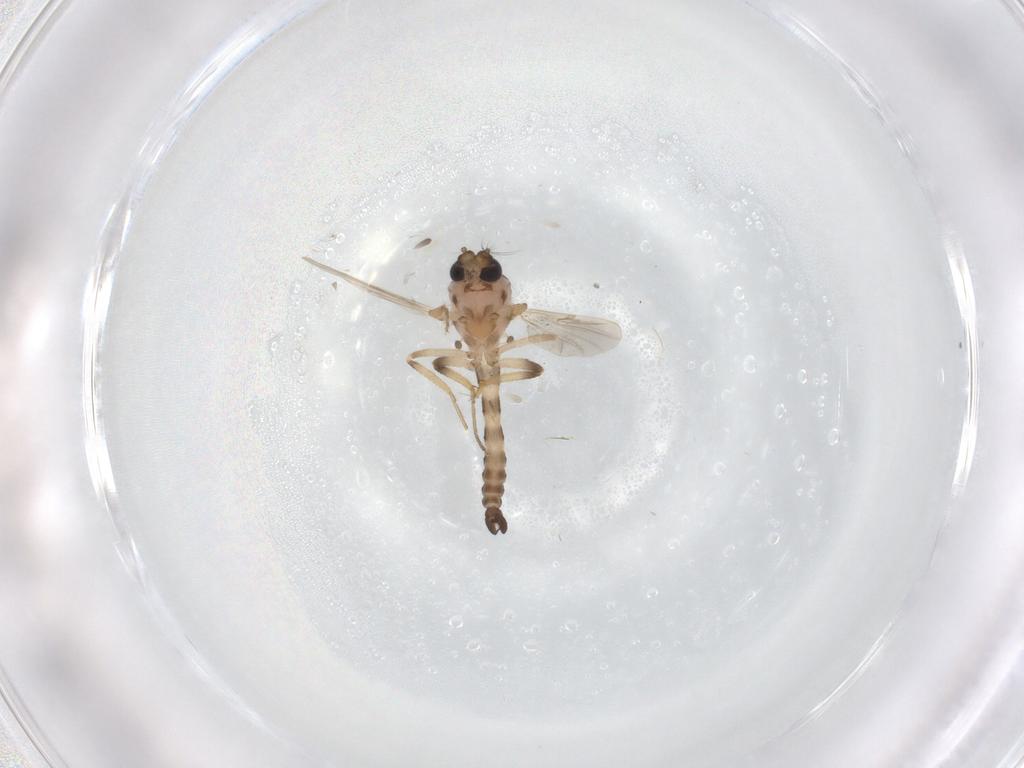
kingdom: Animalia
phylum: Arthropoda
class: Insecta
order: Diptera
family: Ceratopogonidae
